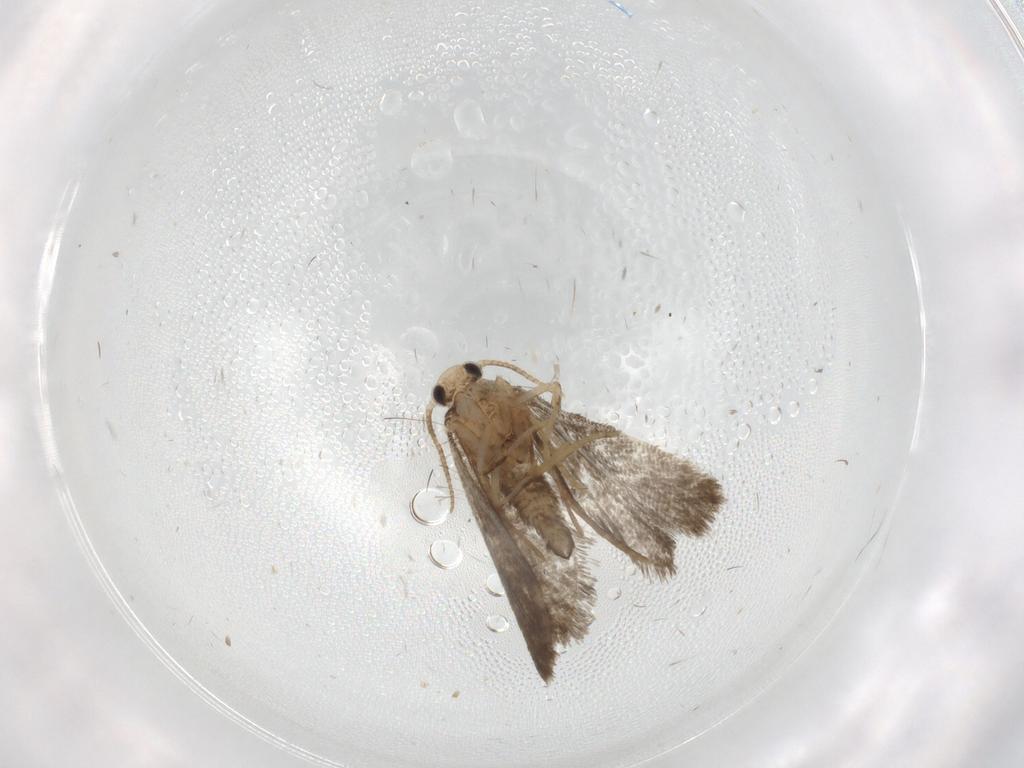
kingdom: Animalia
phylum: Arthropoda
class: Insecta
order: Lepidoptera
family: Psychidae
